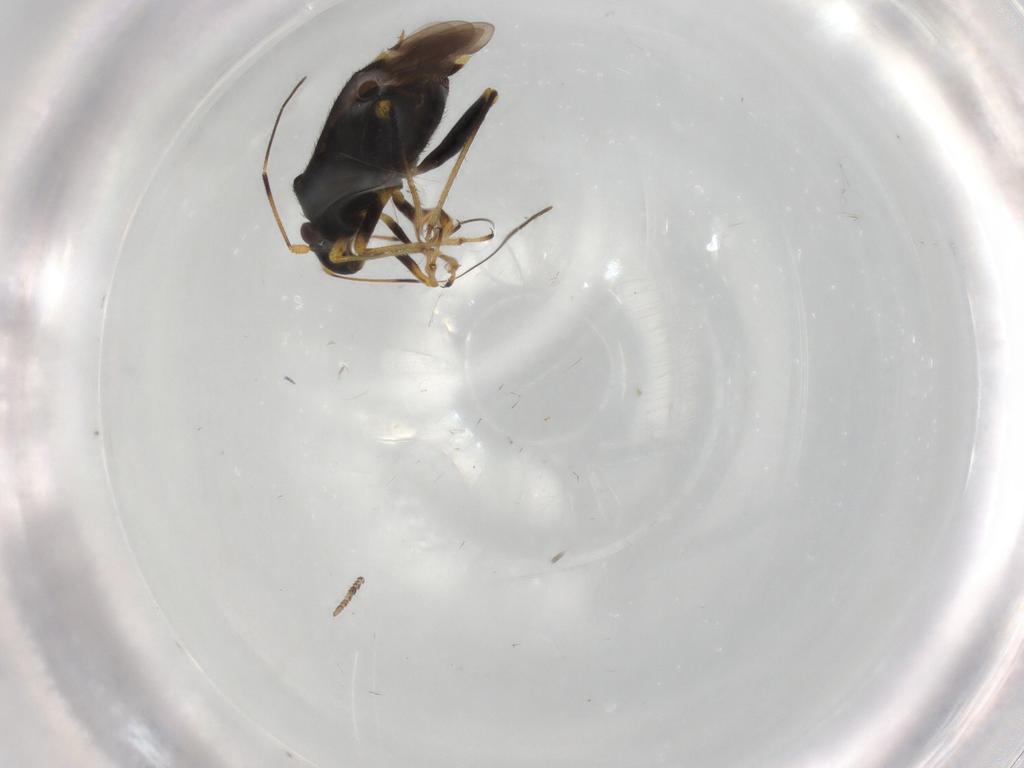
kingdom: Animalia
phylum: Arthropoda
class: Insecta
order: Hemiptera
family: Miridae
